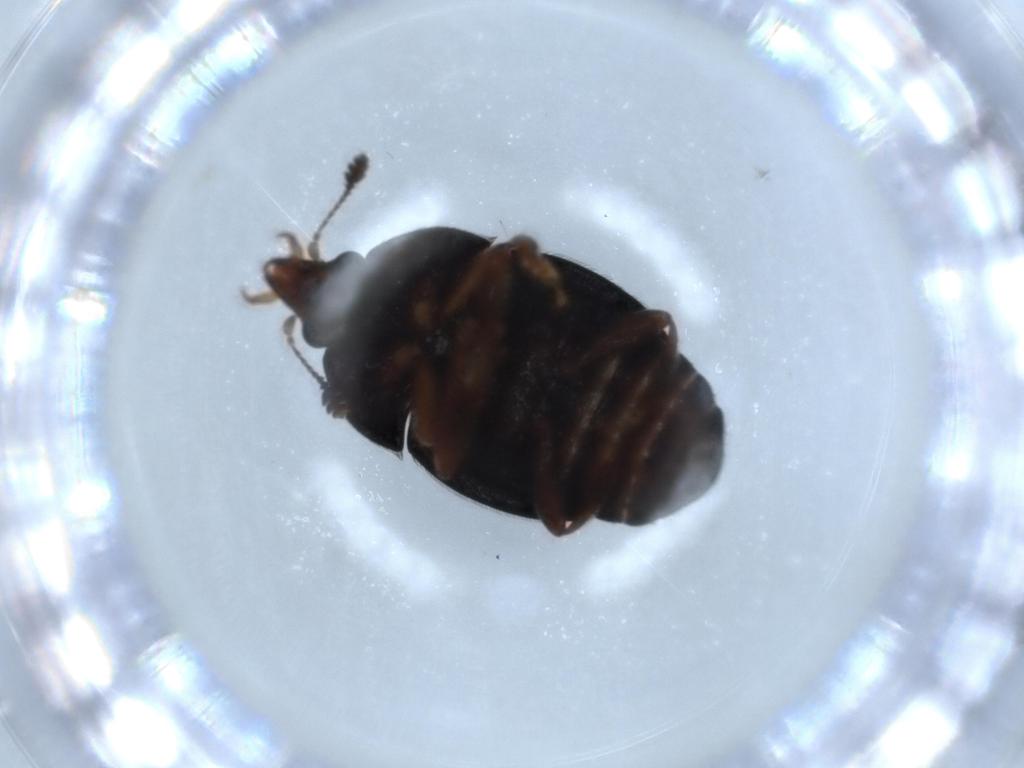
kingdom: Animalia
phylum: Arthropoda
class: Insecta
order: Coleoptera
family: Curculionidae
